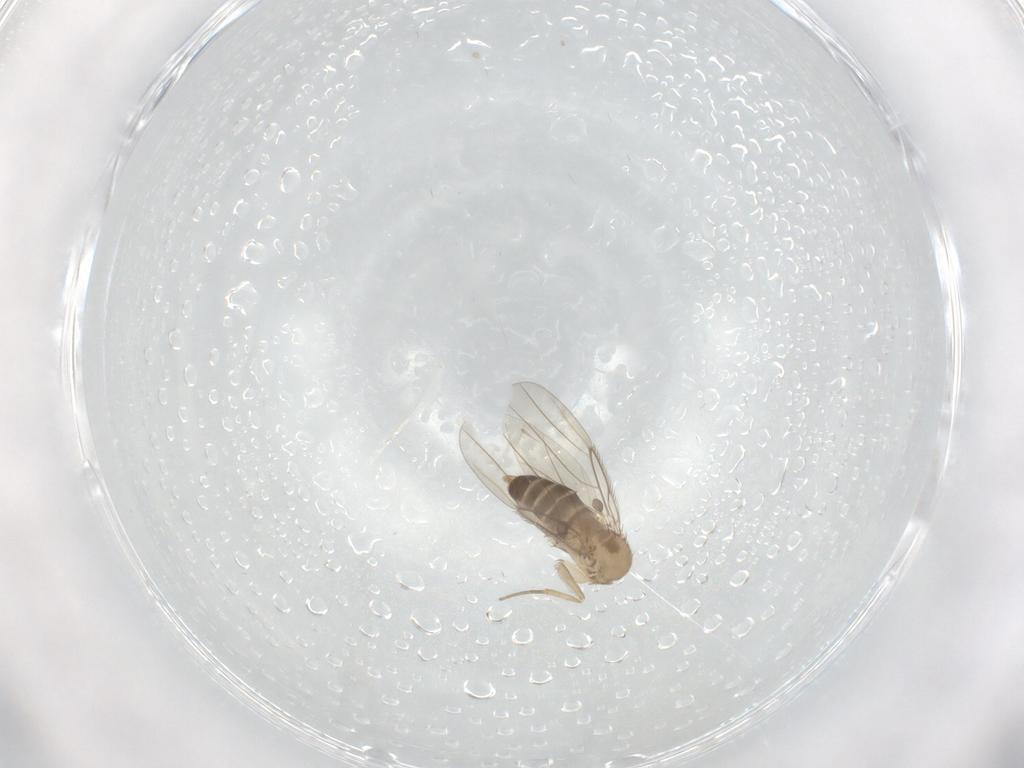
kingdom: Animalia
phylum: Arthropoda
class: Insecta
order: Diptera
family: Phoridae
